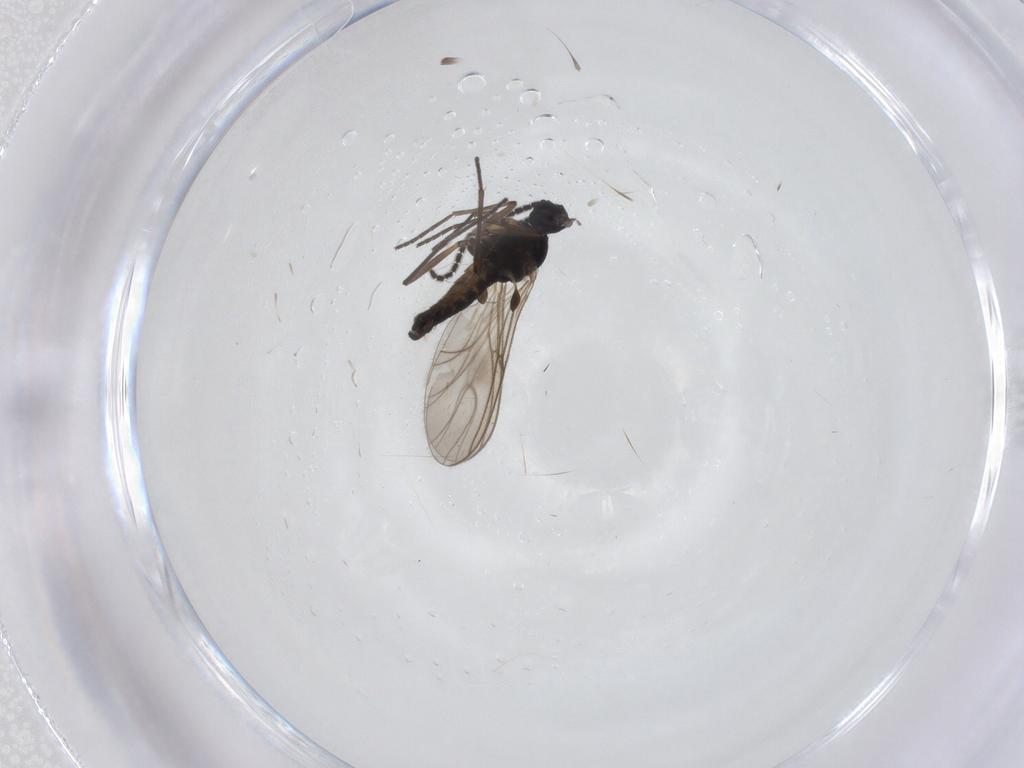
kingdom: Animalia
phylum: Arthropoda
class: Insecta
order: Diptera
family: Sciaridae
